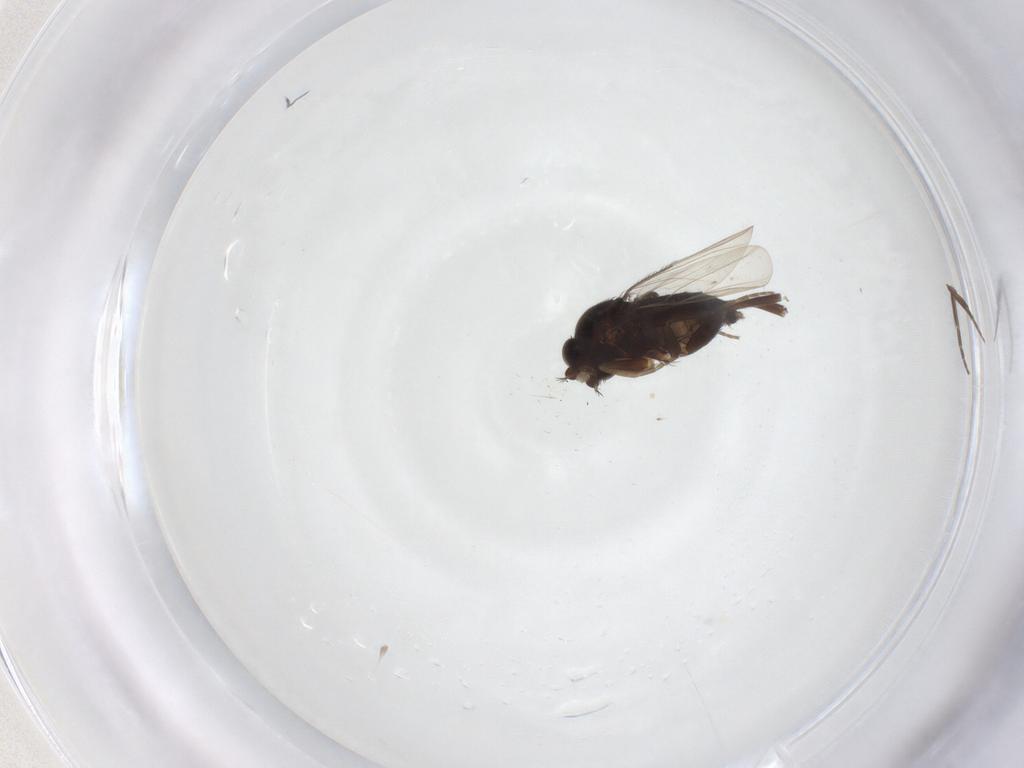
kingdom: Animalia
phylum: Arthropoda
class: Insecta
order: Diptera
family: Phoridae
